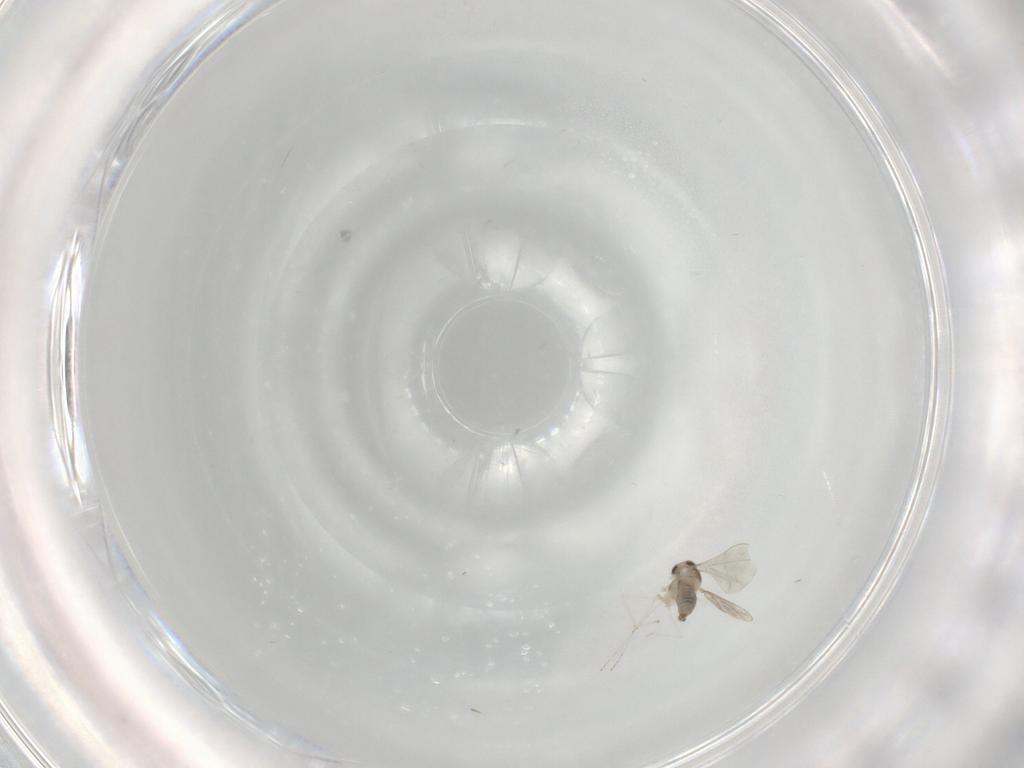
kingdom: Animalia
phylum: Arthropoda
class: Insecta
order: Diptera
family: Cecidomyiidae
